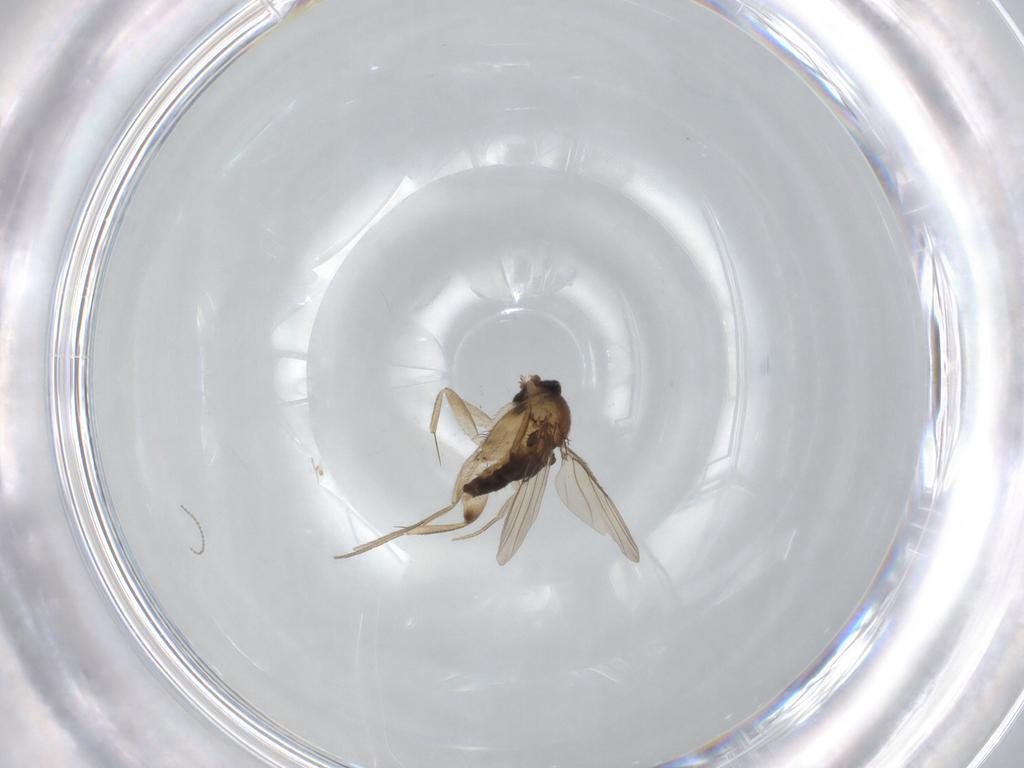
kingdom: Animalia
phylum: Arthropoda
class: Insecta
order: Diptera
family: Phoridae
